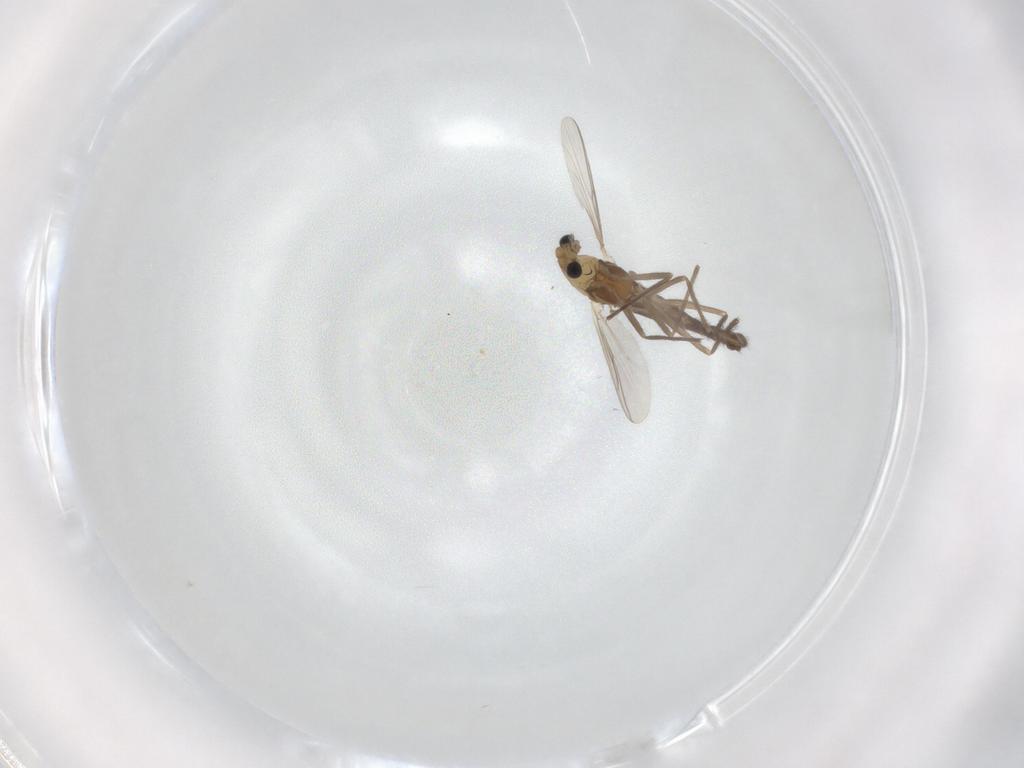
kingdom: Animalia
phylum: Arthropoda
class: Insecta
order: Diptera
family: Chironomidae
